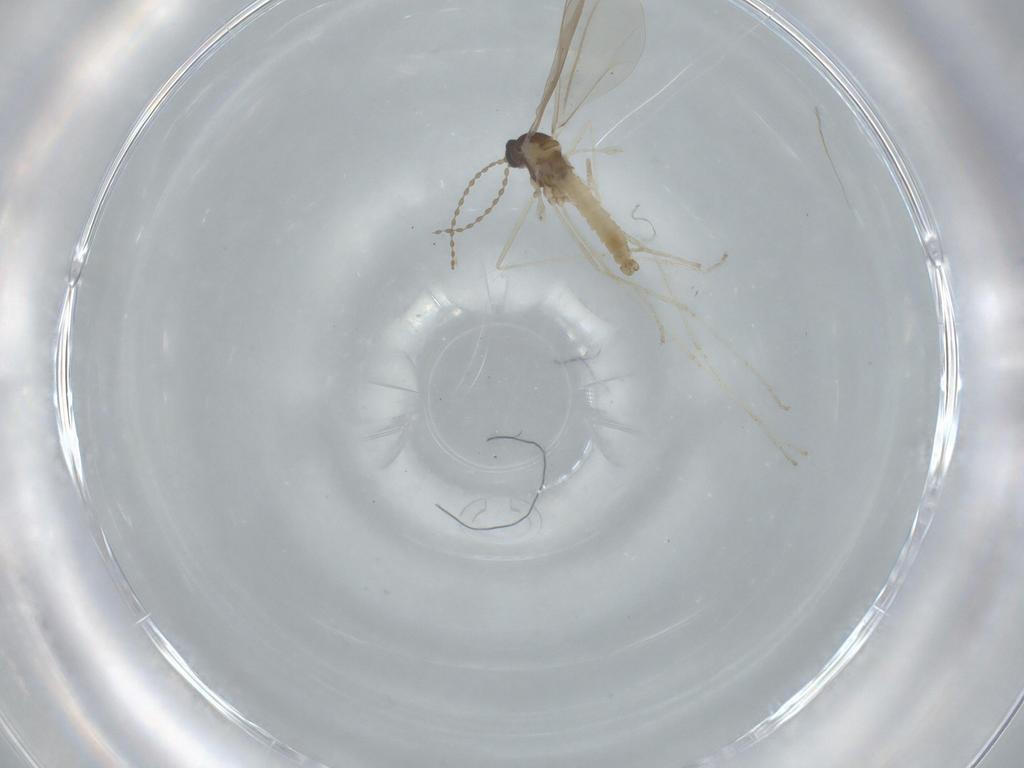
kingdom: Animalia
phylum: Arthropoda
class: Insecta
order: Diptera
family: Cecidomyiidae
